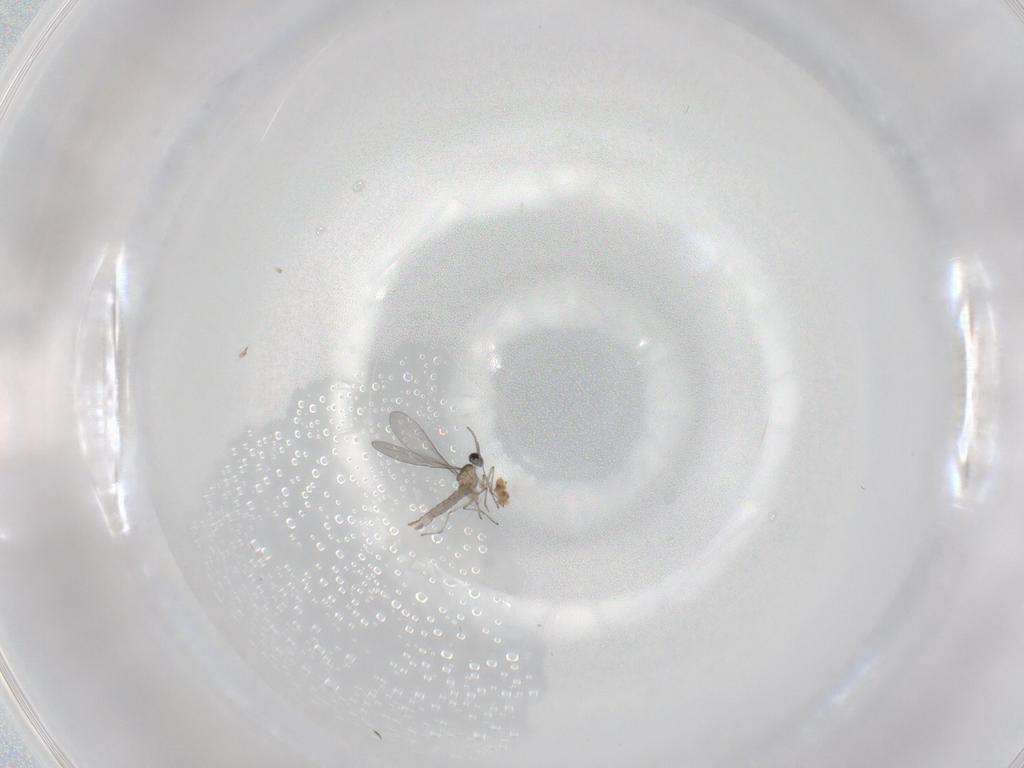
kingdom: Animalia
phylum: Arthropoda
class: Insecta
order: Diptera
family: Cecidomyiidae
